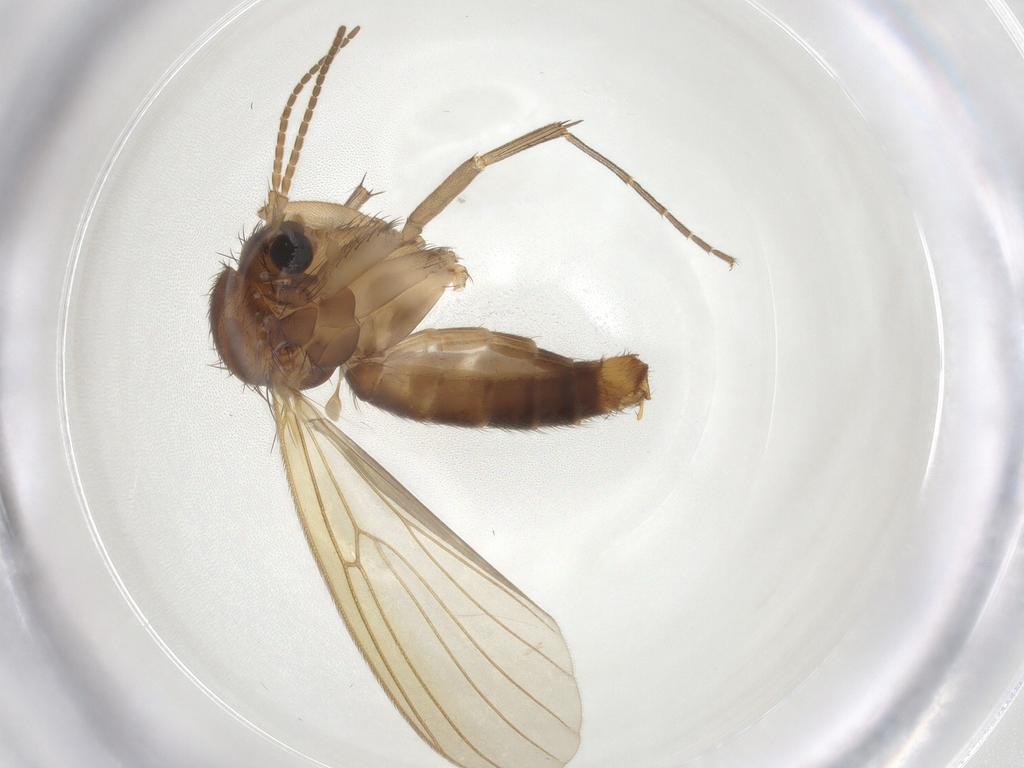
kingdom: Animalia
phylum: Arthropoda
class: Insecta
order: Diptera
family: Mycetophilidae
